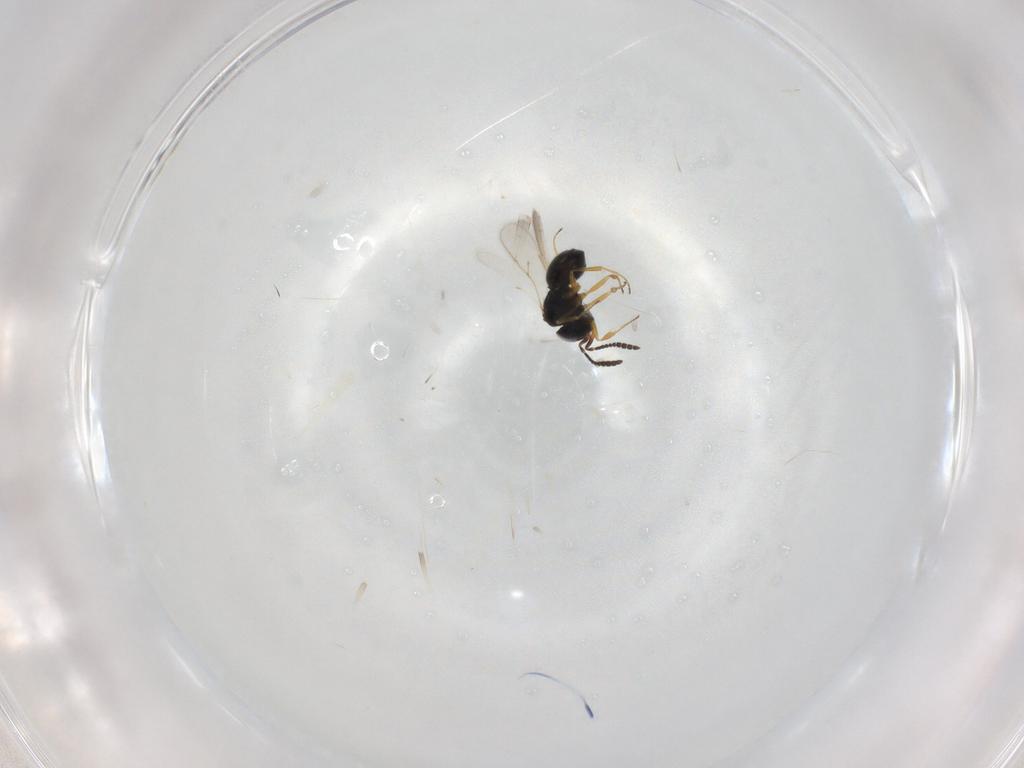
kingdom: Animalia
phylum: Arthropoda
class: Insecta
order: Hymenoptera
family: Scelionidae
